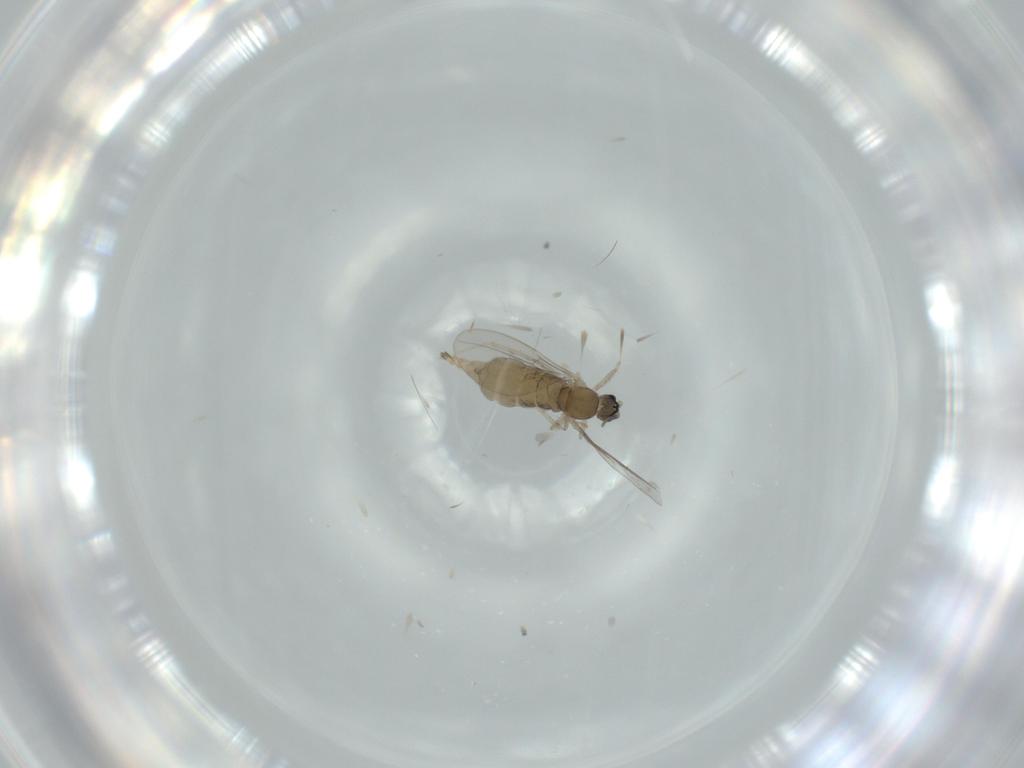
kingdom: Animalia
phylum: Arthropoda
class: Insecta
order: Diptera
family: Cecidomyiidae
